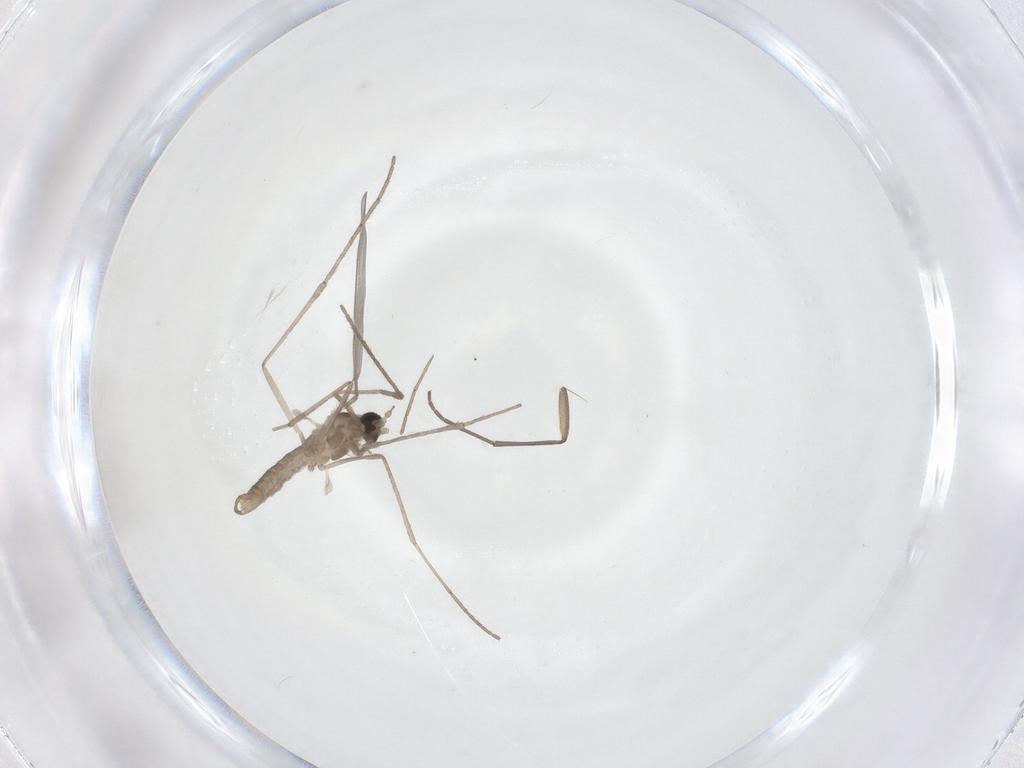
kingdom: Animalia
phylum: Arthropoda
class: Insecta
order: Diptera
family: Cecidomyiidae
